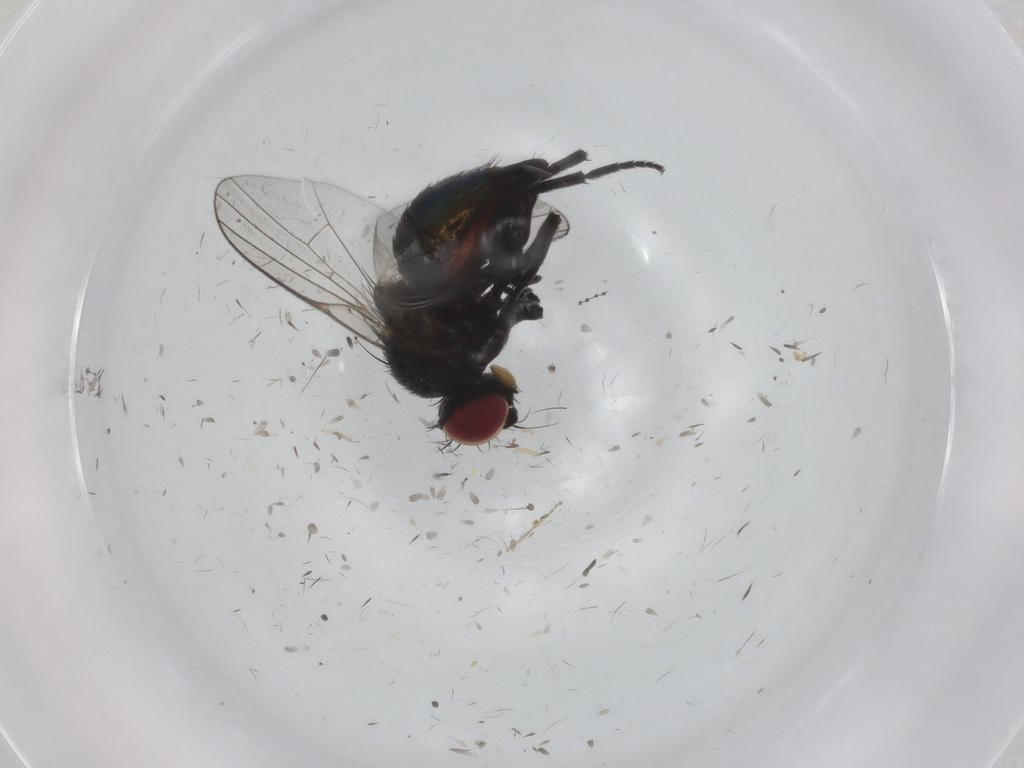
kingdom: Animalia
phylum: Arthropoda
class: Insecta
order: Diptera
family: Agromyzidae
